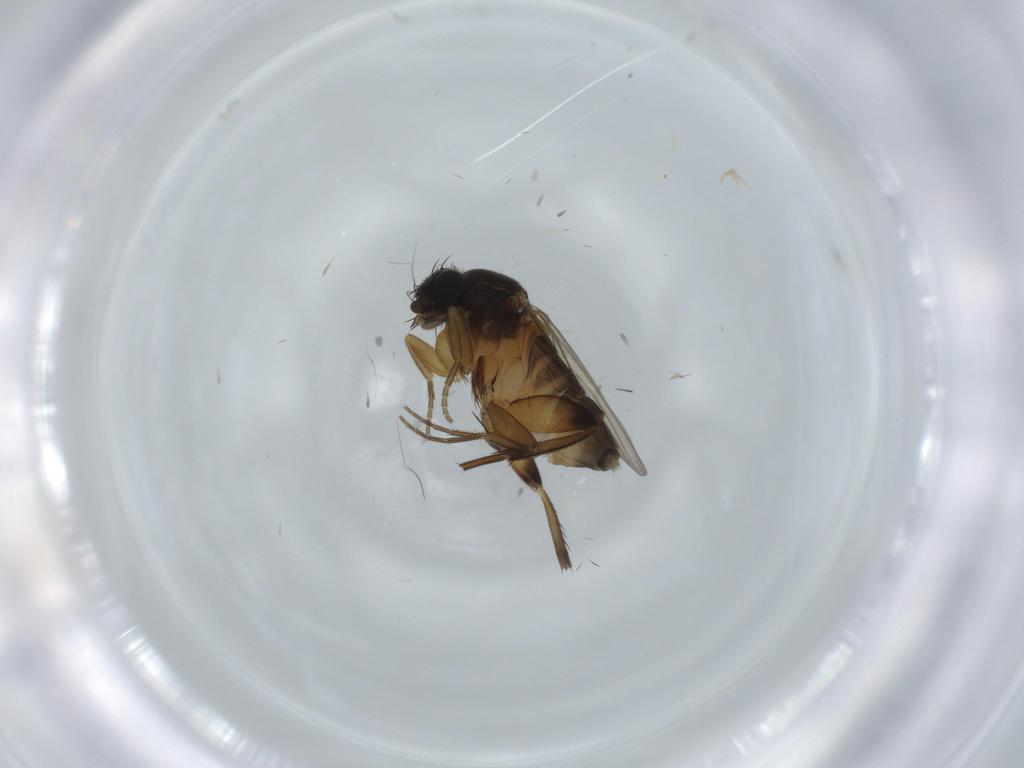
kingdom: Animalia
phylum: Arthropoda
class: Insecta
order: Diptera
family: Phoridae
